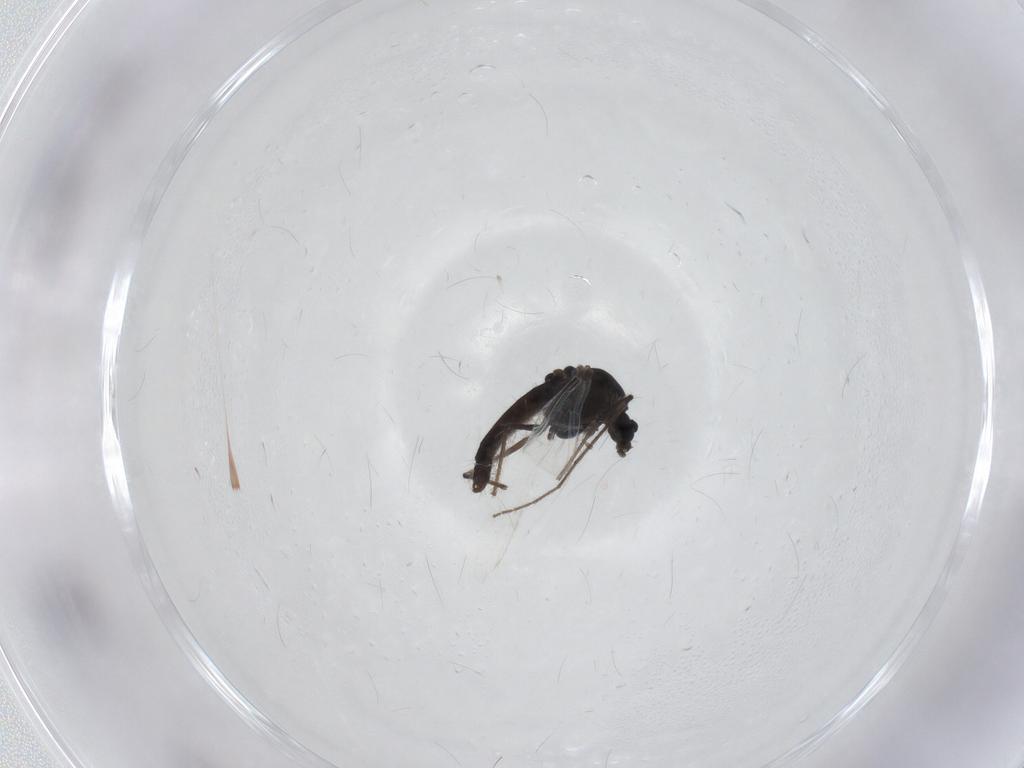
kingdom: Animalia
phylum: Arthropoda
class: Insecta
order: Diptera
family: Chironomidae
